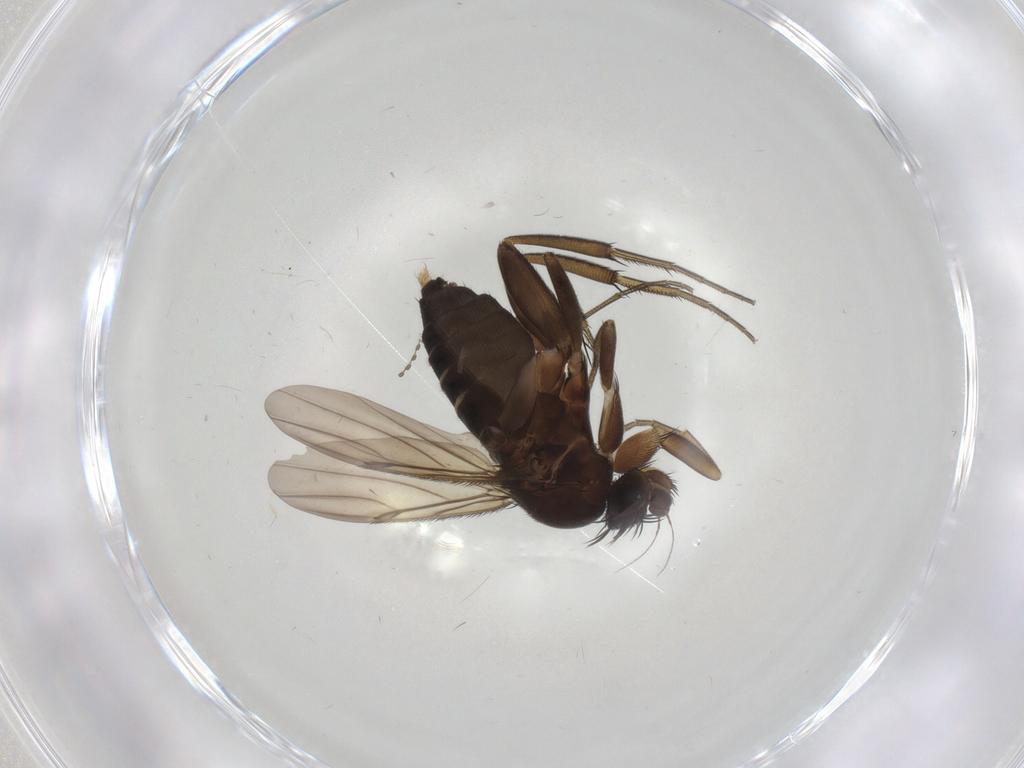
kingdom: Animalia
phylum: Arthropoda
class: Insecta
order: Diptera
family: Phoridae
